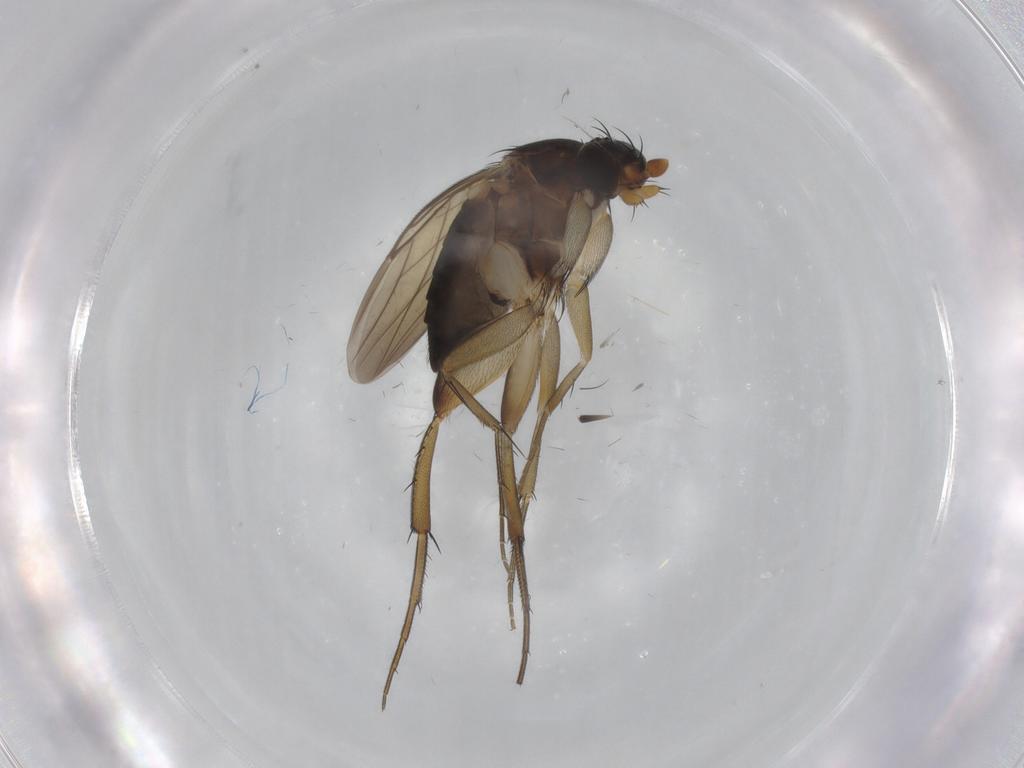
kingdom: Animalia
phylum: Arthropoda
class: Insecta
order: Diptera
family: Phoridae
